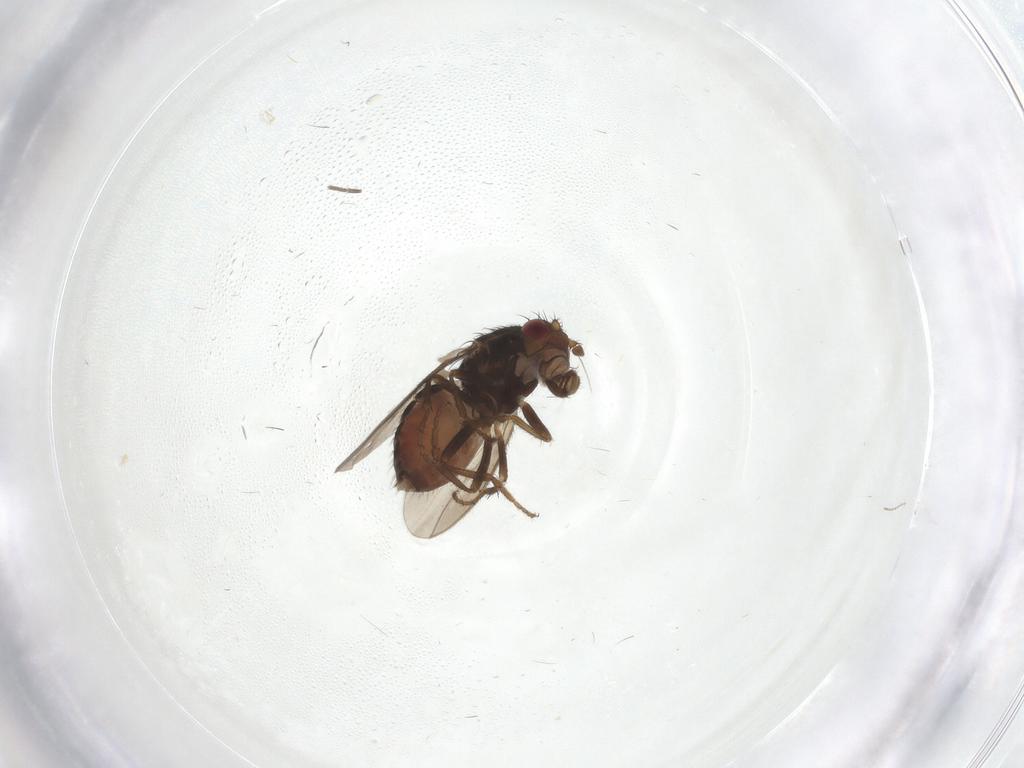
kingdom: Animalia
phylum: Arthropoda
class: Insecta
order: Diptera
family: Sphaeroceridae
